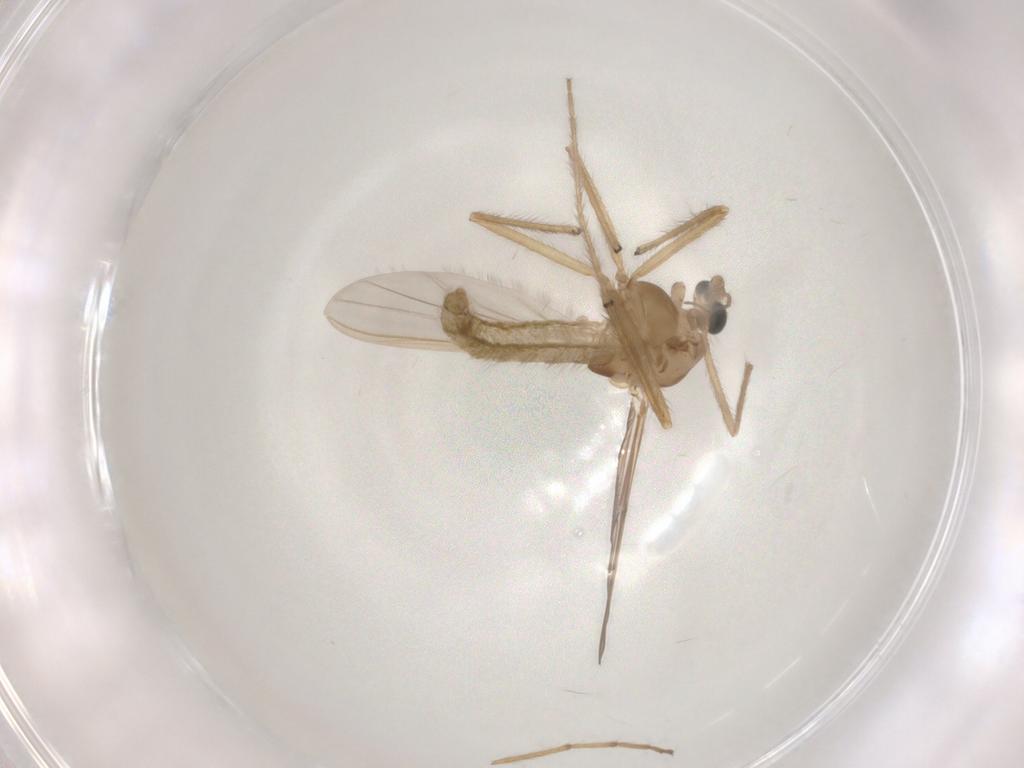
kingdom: Animalia
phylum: Arthropoda
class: Insecta
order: Diptera
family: Chironomidae
